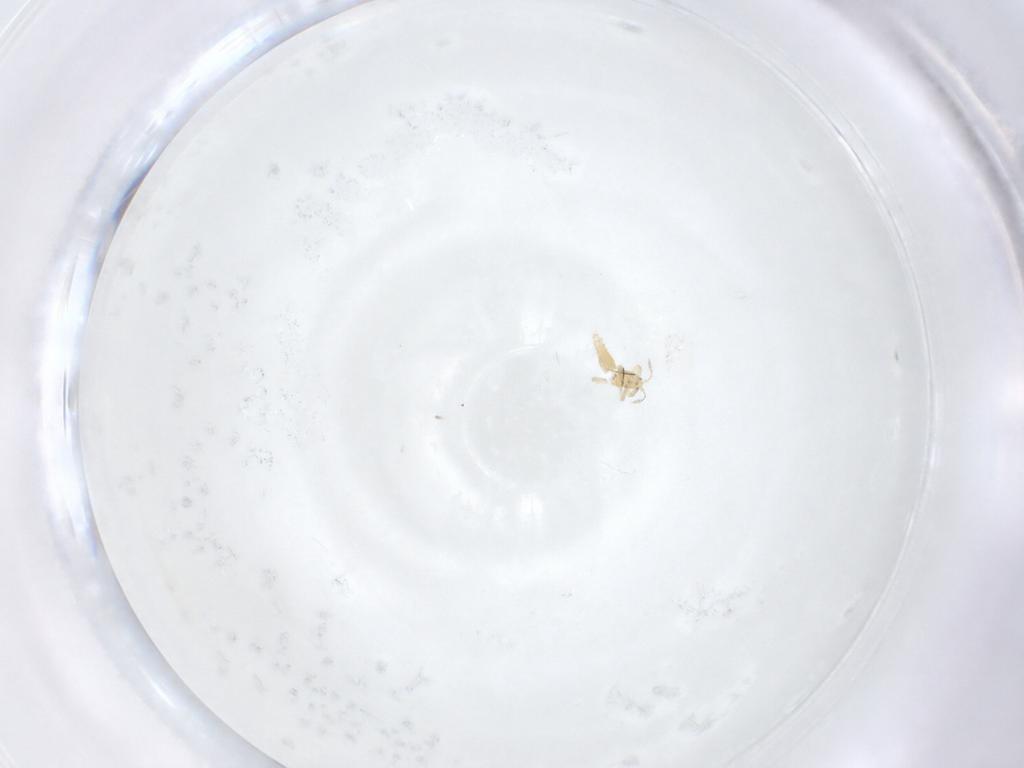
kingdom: Animalia
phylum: Arthropoda
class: Insecta
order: Thysanoptera
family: Aeolothripidae
